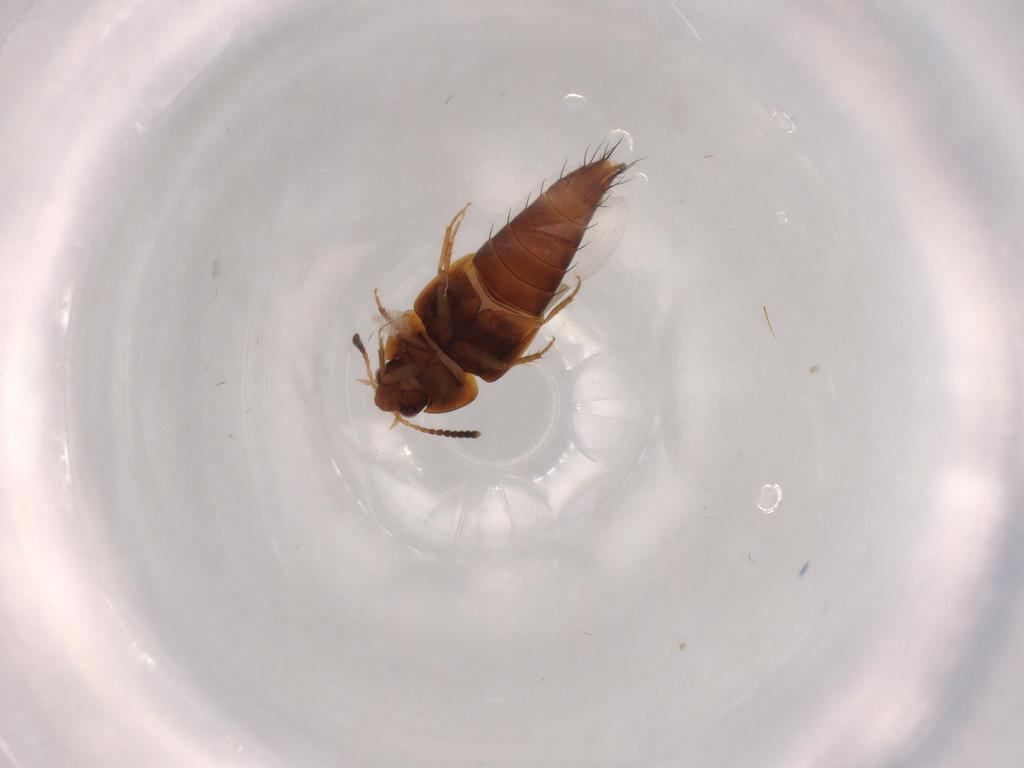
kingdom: Animalia
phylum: Arthropoda
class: Insecta
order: Coleoptera
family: Staphylinidae
